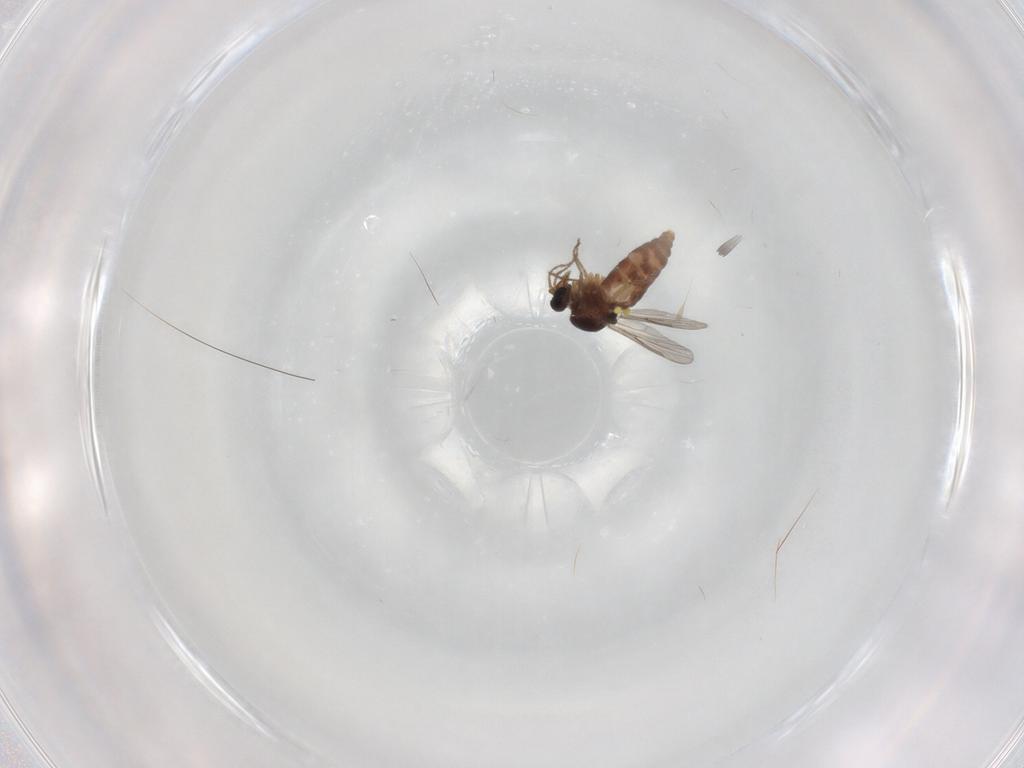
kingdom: Animalia
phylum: Arthropoda
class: Insecta
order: Diptera
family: Ceratopogonidae
